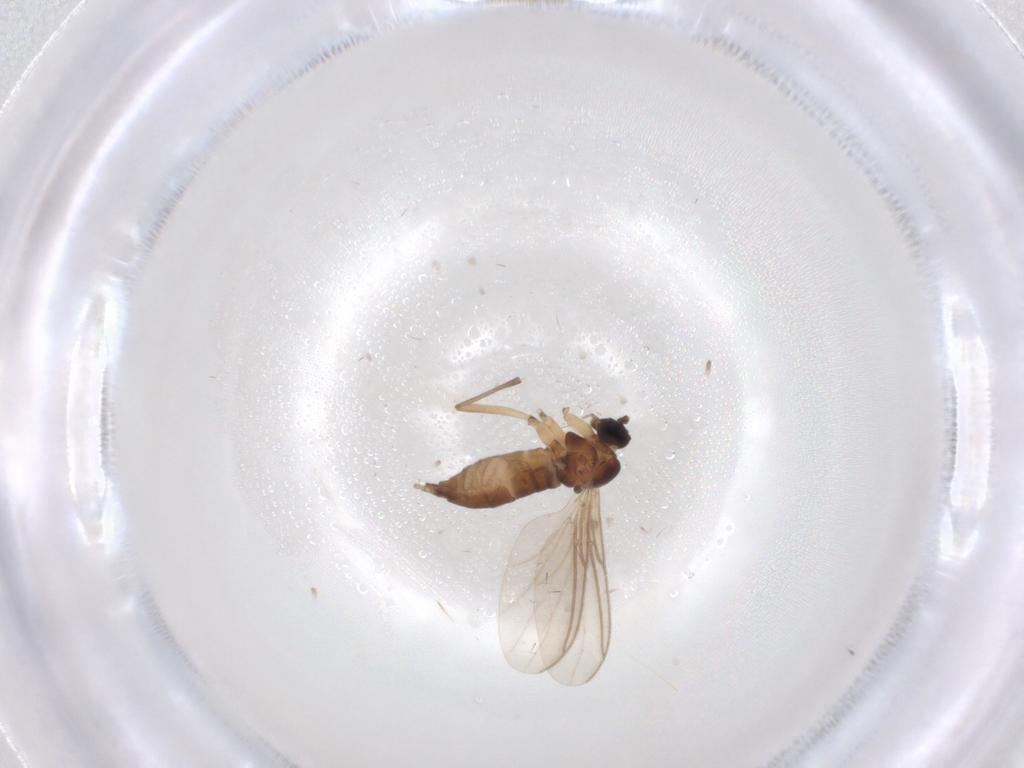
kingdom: Animalia
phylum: Arthropoda
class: Insecta
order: Diptera
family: Sciaridae
